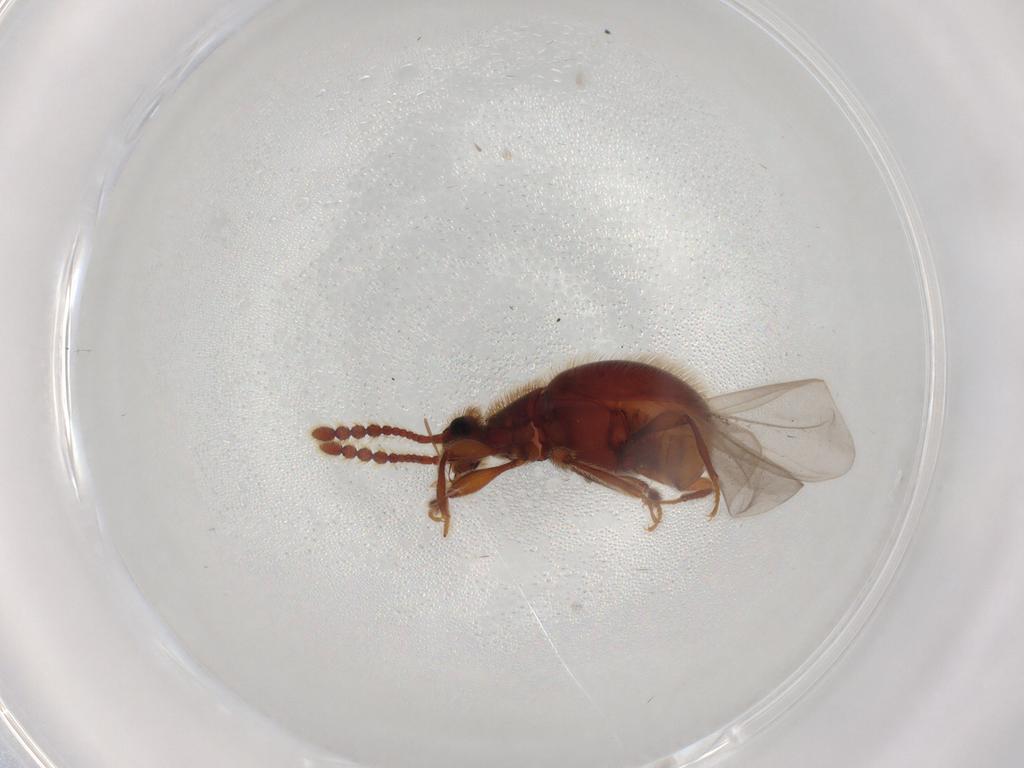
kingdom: Animalia
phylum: Arthropoda
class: Insecta
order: Coleoptera
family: Staphylinidae
